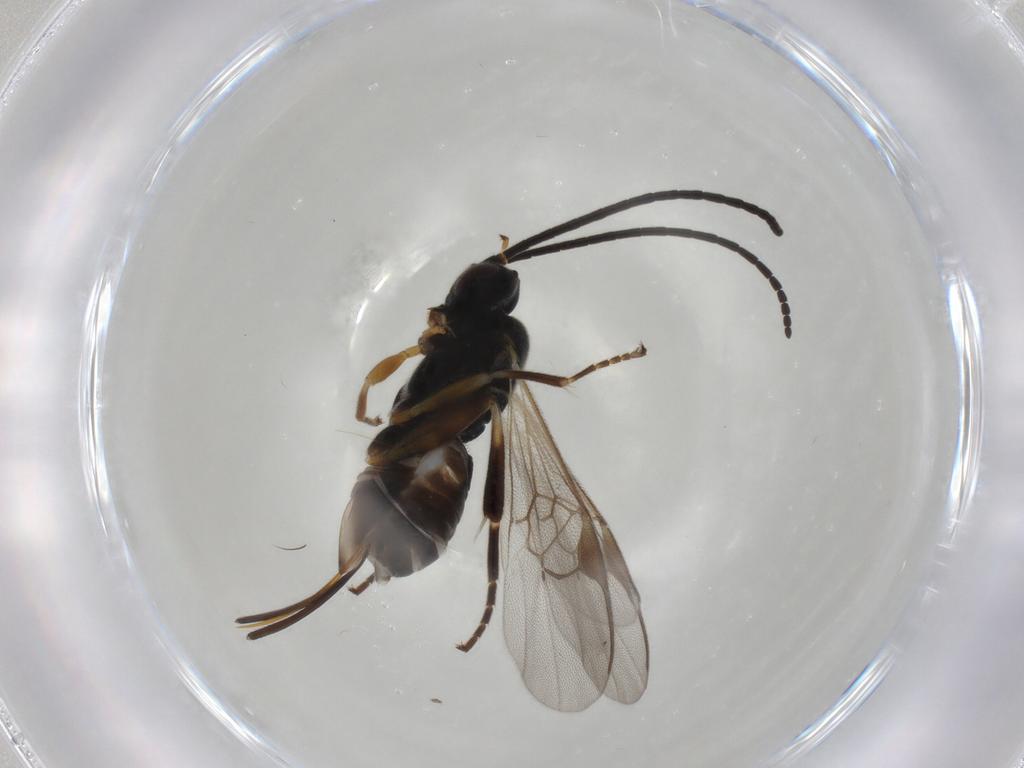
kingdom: Animalia
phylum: Arthropoda
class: Insecta
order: Hymenoptera
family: Braconidae
